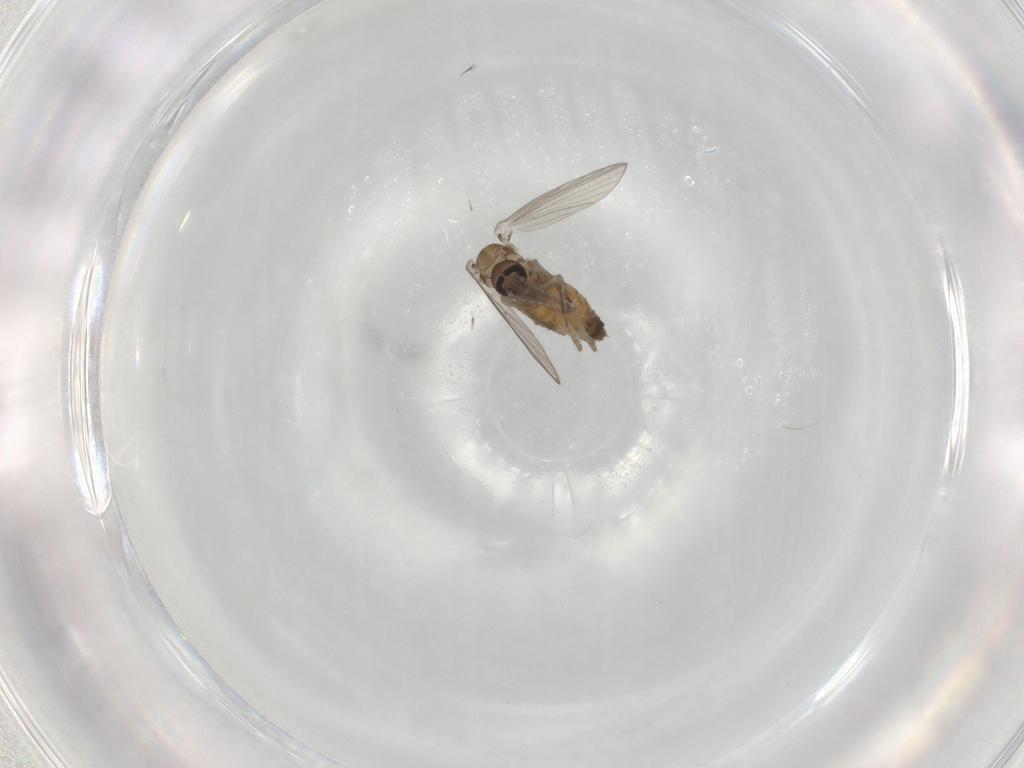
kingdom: Animalia
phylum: Arthropoda
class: Insecta
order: Diptera
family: Psychodidae
